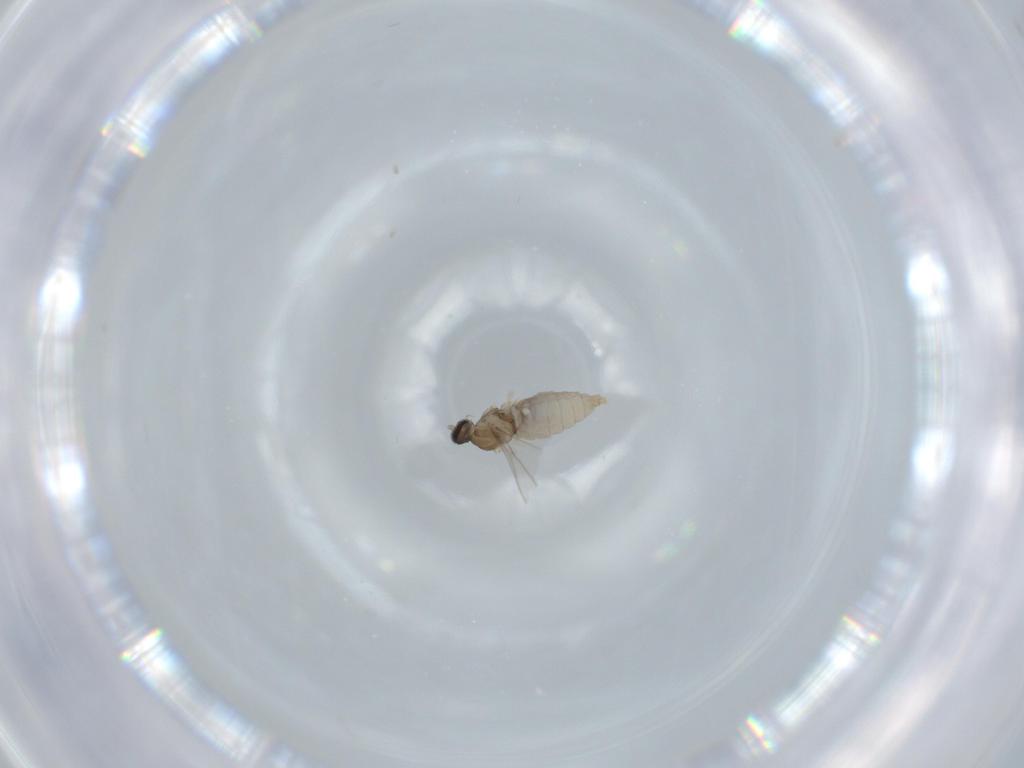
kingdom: Animalia
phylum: Arthropoda
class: Insecta
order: Diptera
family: Cecidomyiidae
